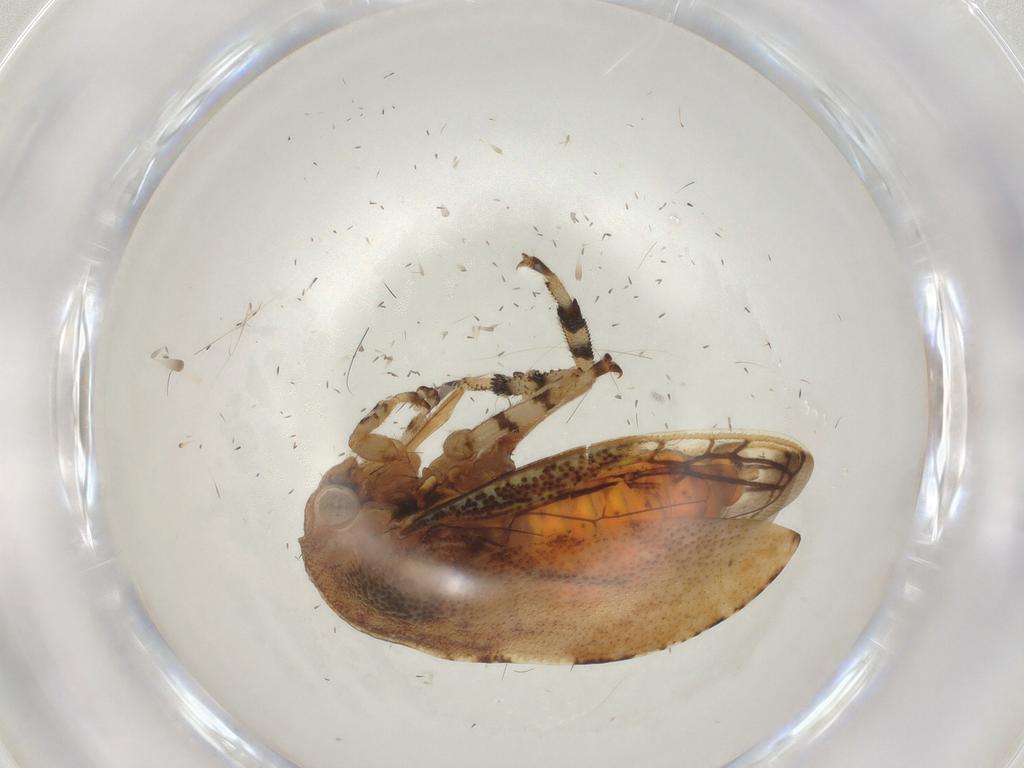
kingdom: Animalia
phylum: Arthropoda
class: Insecta
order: Hemiptera
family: Membracidae
